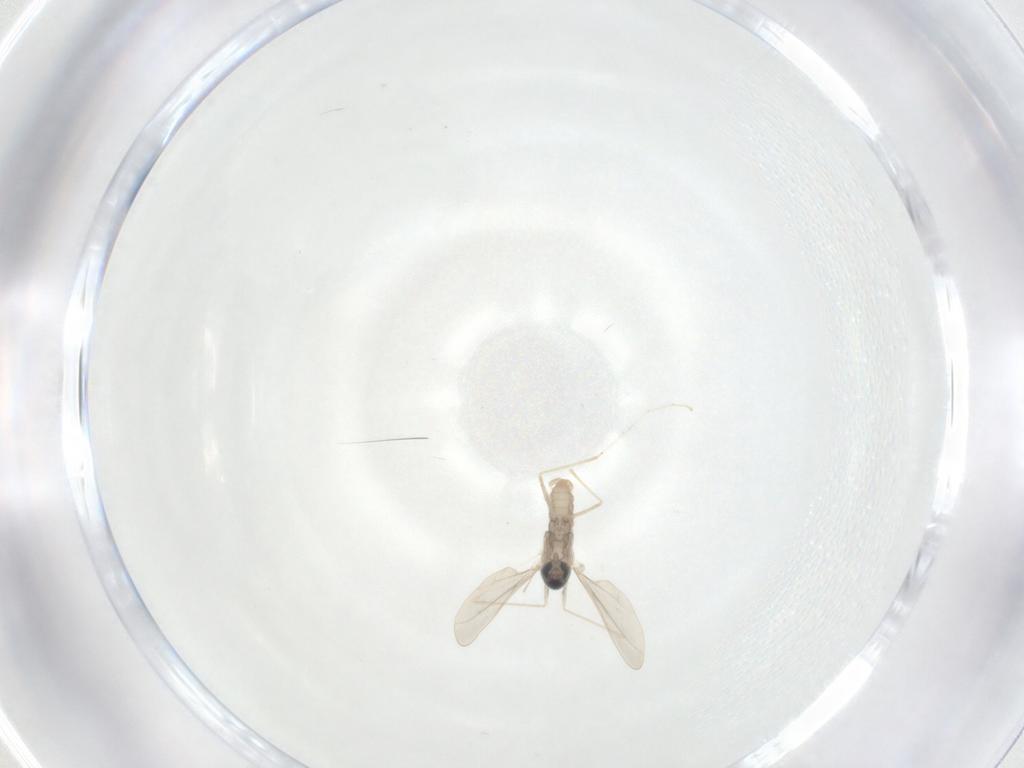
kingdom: Animalia
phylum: Arthropoda
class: Insecta
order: Diptera
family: Cecidomyiidae
